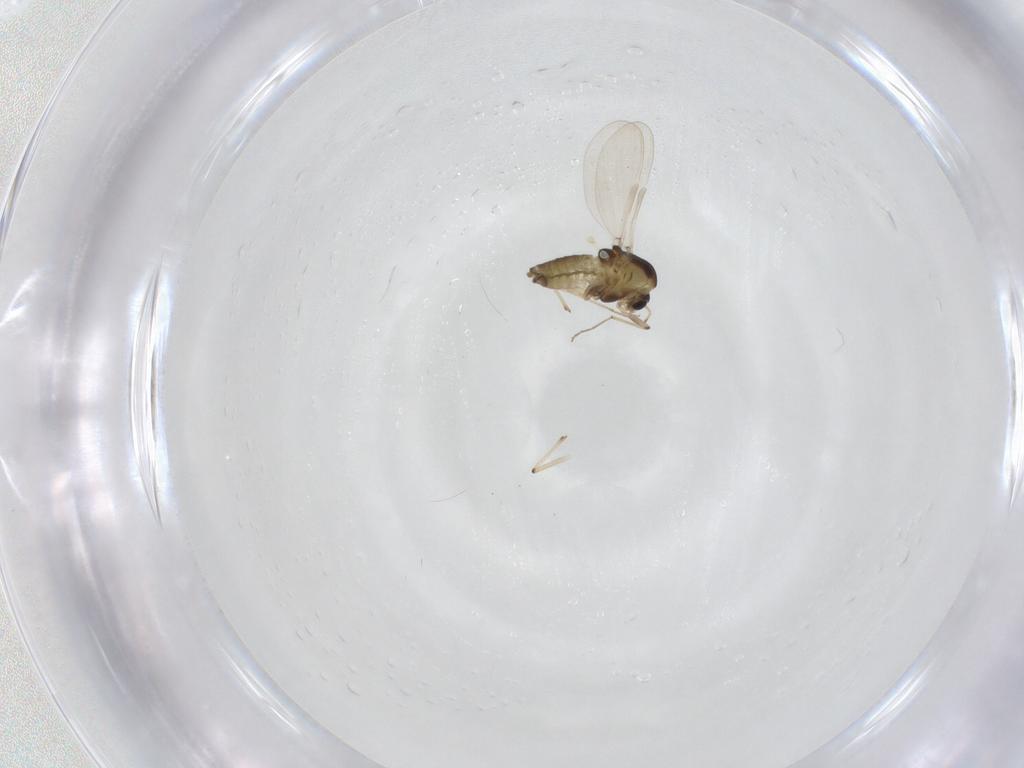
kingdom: Animalia
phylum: Arthropoda
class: Insecta
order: Diptera
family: Chironomidae
